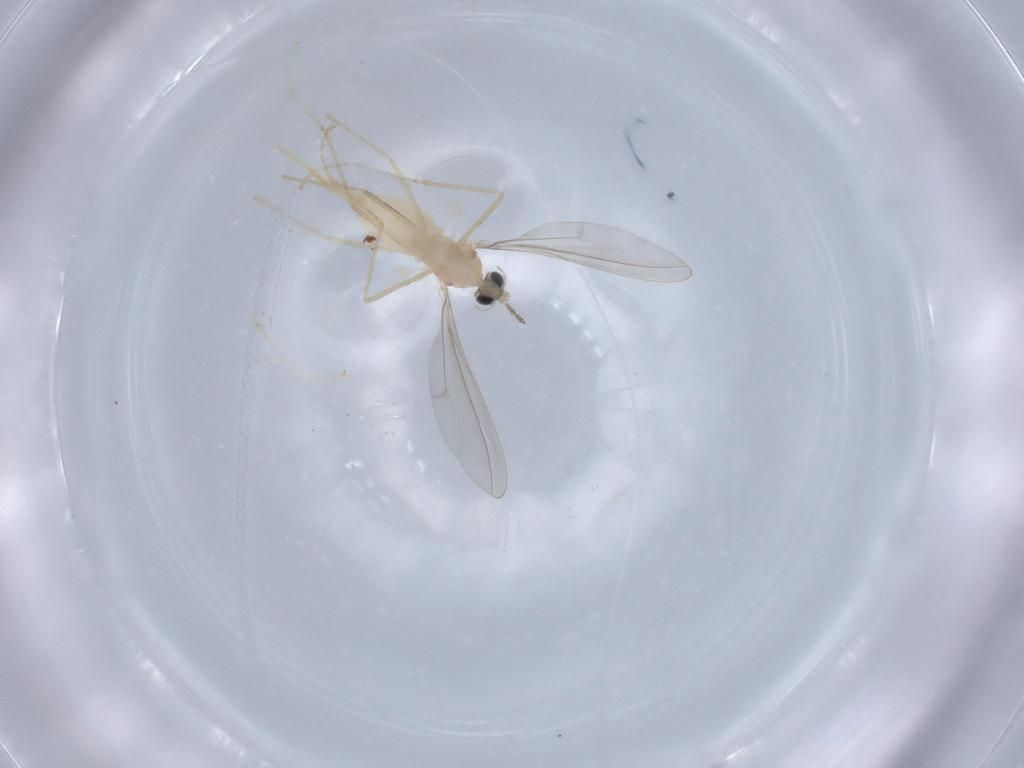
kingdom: Animalia
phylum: Arthropoda
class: Insecta
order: Diptera
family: Cecidomyiidae
